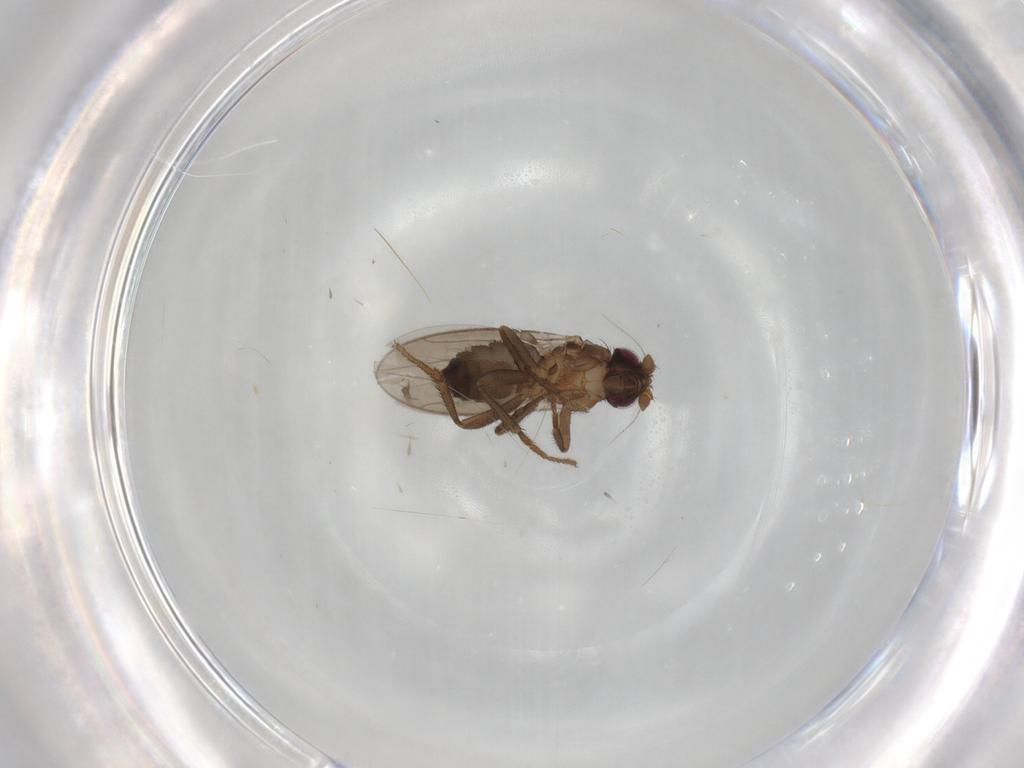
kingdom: Animalia
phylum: Arthropoda
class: Insecta
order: Diptera
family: Sphaeroceridae
